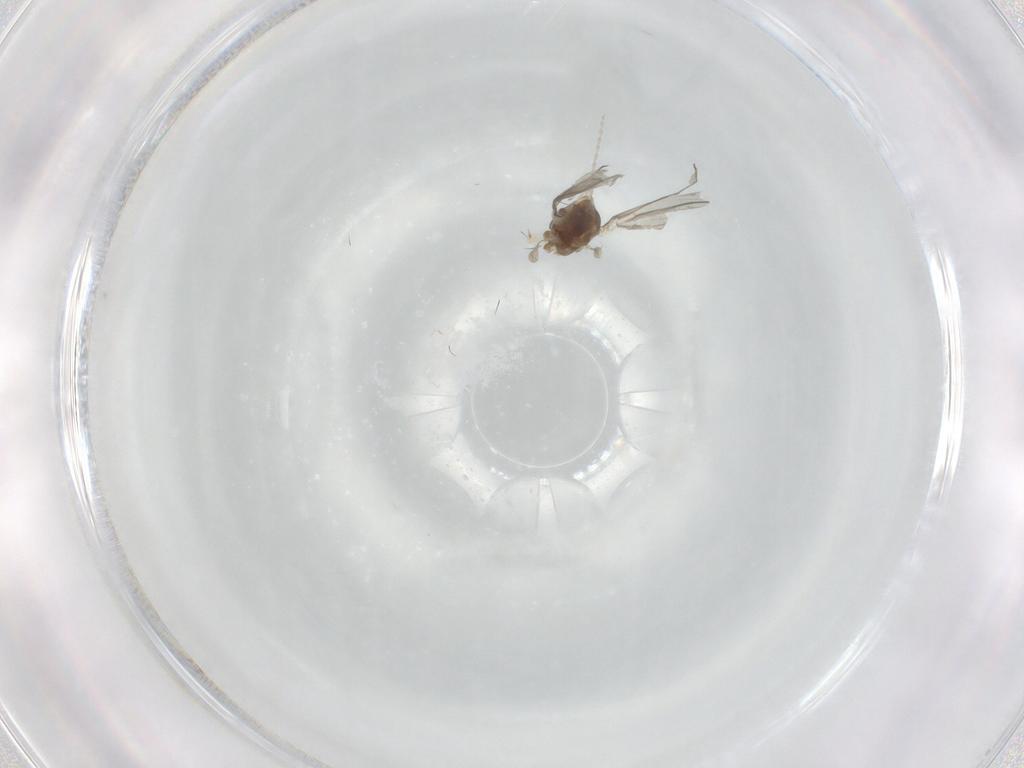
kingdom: Animalia
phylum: Arthropoda
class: Insecta
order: Diptera
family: Cecidomyiidae
